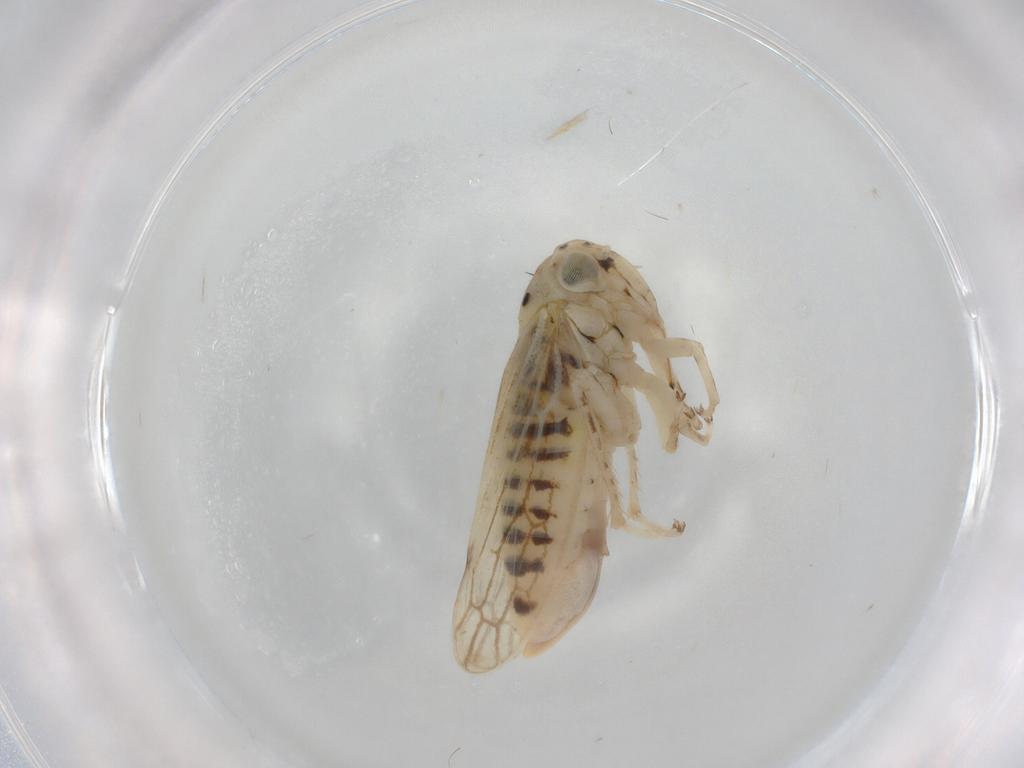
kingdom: Animalia
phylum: Arthropoda
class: Insecta
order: Hemiptera
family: Cicadellidae
